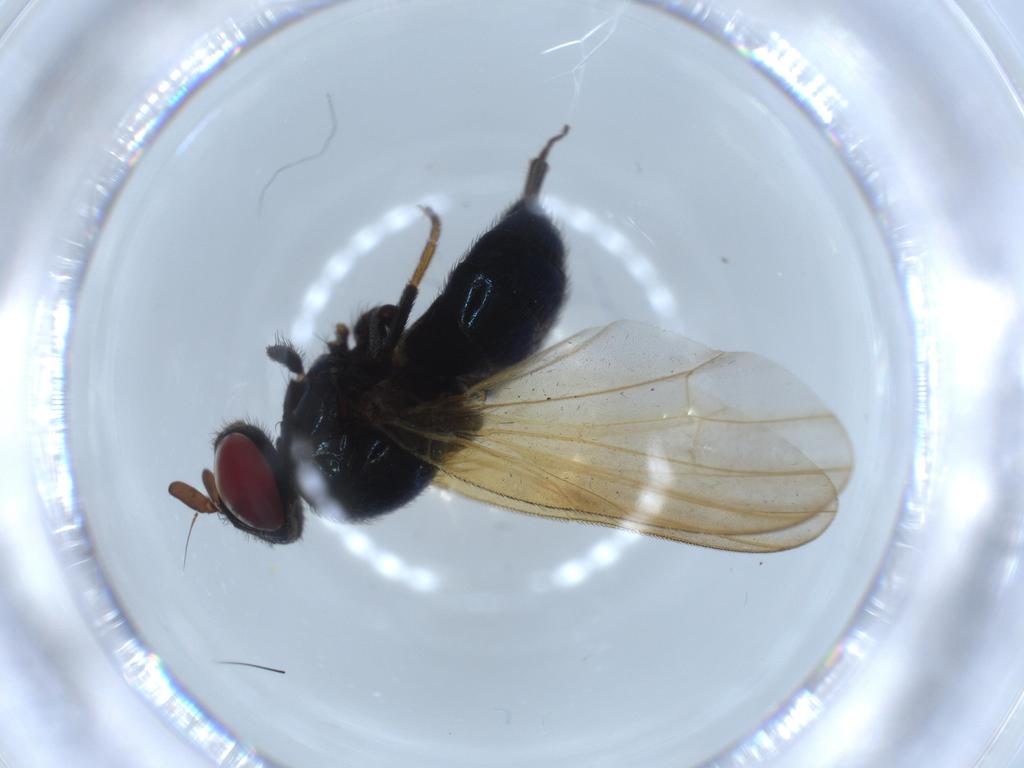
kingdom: Animalia
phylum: Arthropoda
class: Insecta
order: Diptera
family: Lonchaeidae
